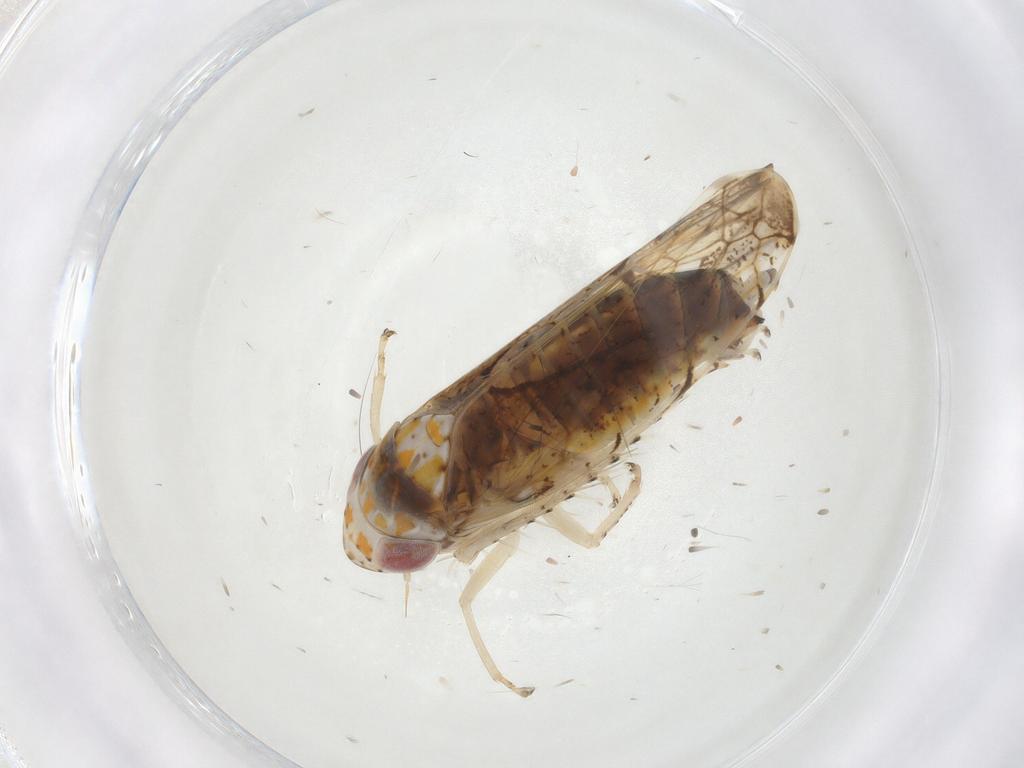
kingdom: Animalia
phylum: Arthropoda
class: Insecta
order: Hemiptera
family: Cicadellidae
